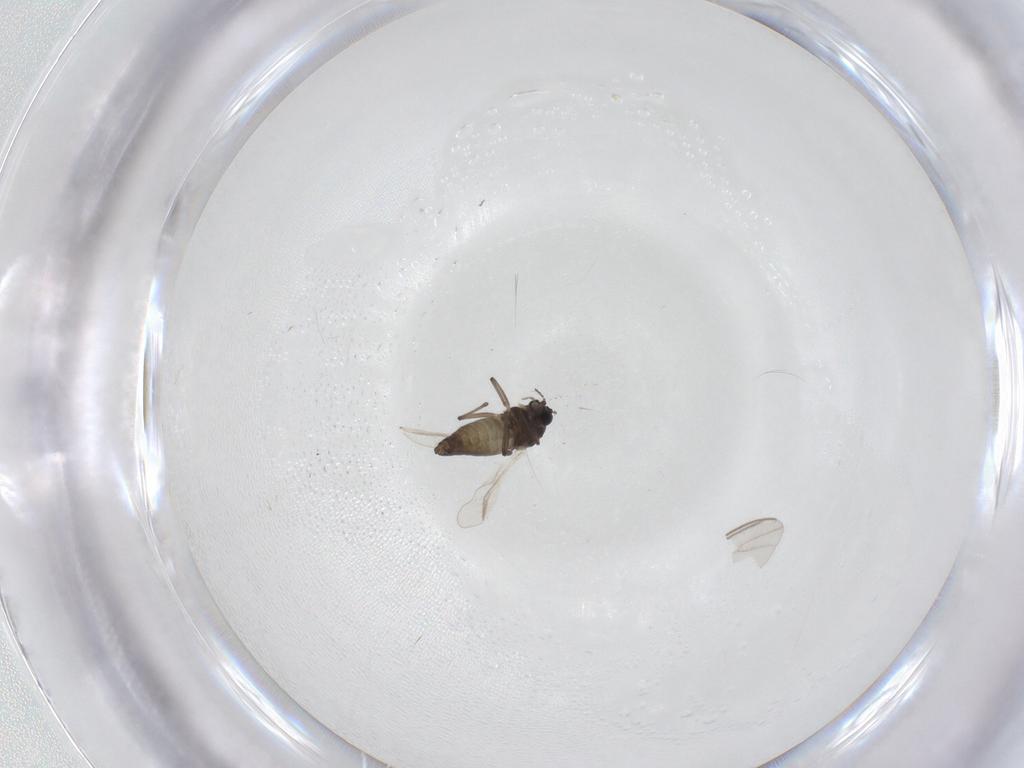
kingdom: Animalia
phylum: Arthropoda
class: Insecta
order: Diptera
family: Chironomidae
